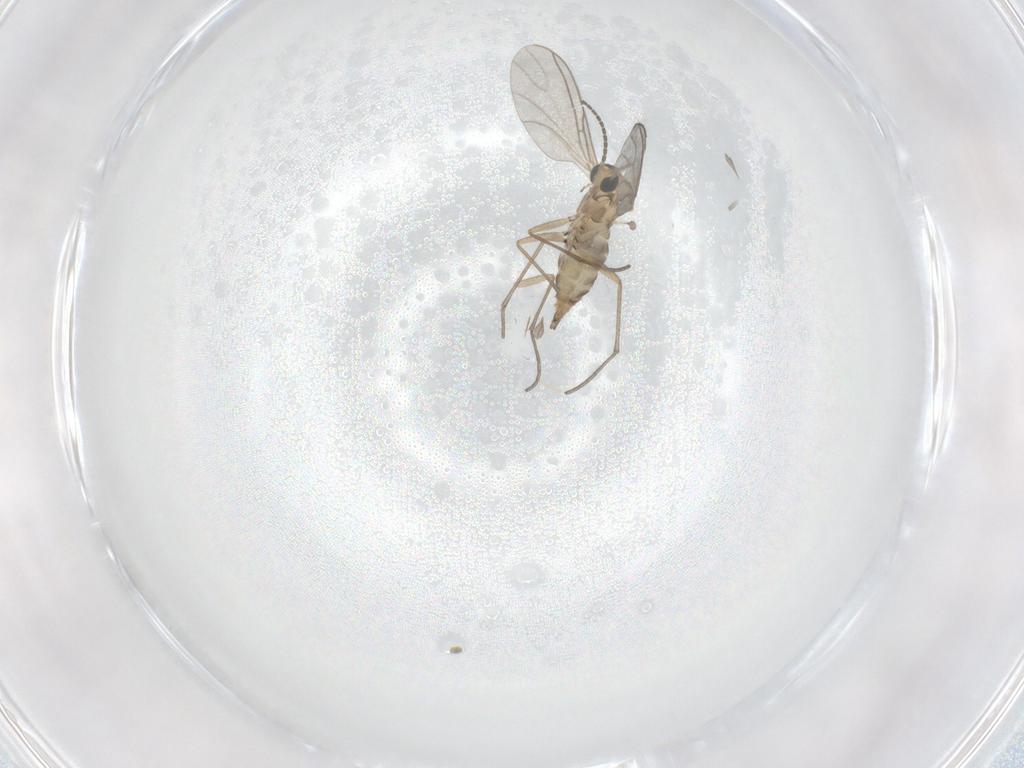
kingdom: Animalia
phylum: Arthropoda
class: Insecta
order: Diptera
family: Sciaridae
